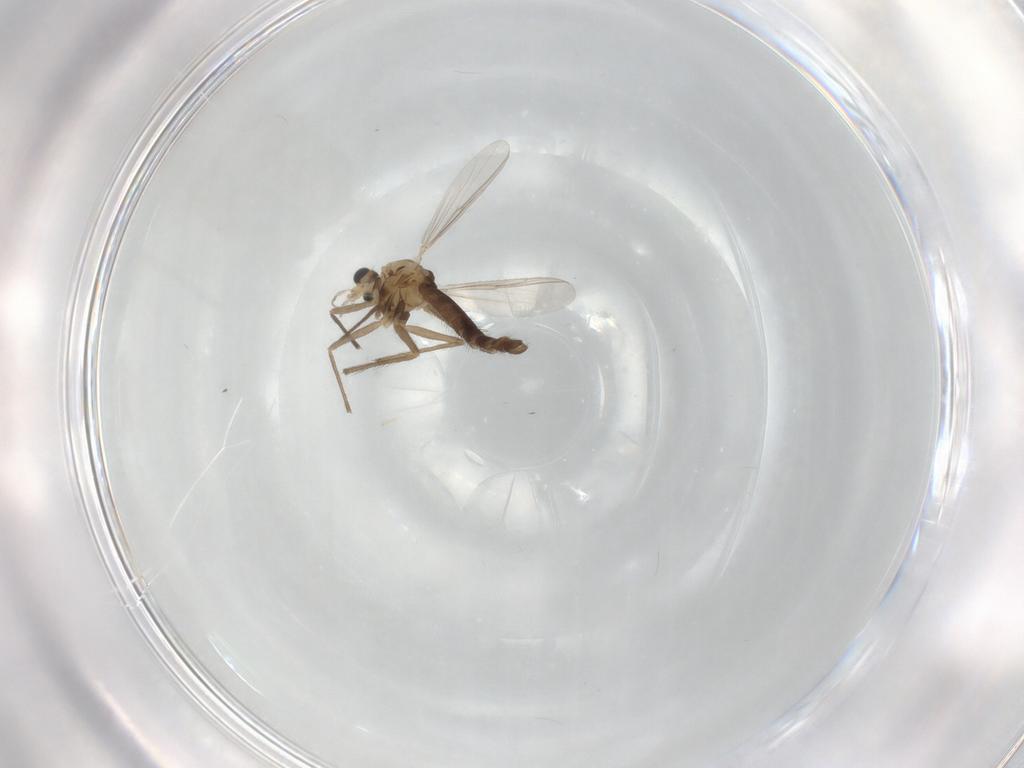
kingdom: Animalia
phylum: Arthropoda
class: Insecta
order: Diptera
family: Chironomidae
